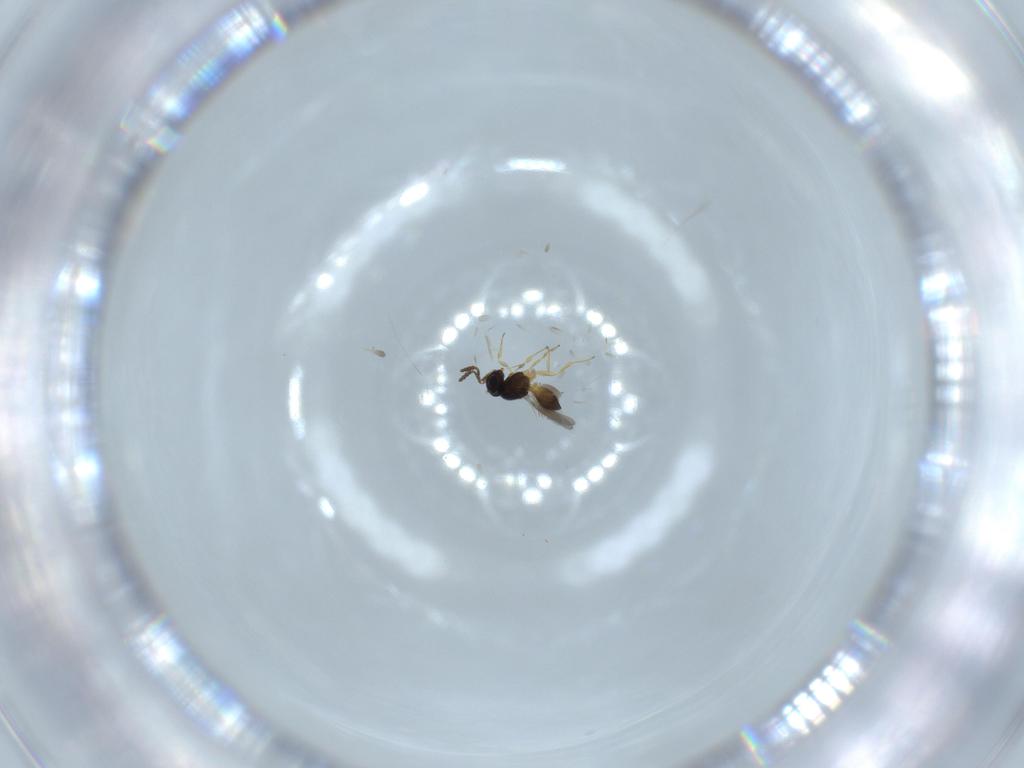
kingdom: Animalia
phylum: Arthropoda
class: Insecta
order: Hymenoptera
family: Scelionidae
